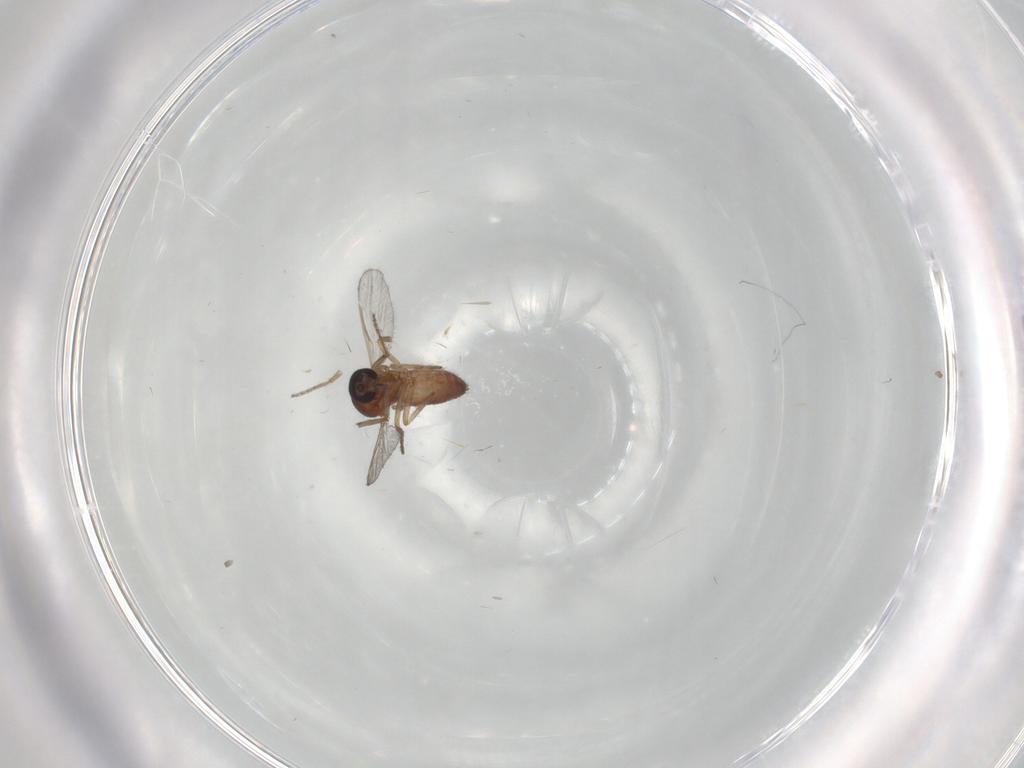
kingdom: Animalia
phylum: Arthropoda
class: Insecta
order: Diptera
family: Ceratopogonidae
